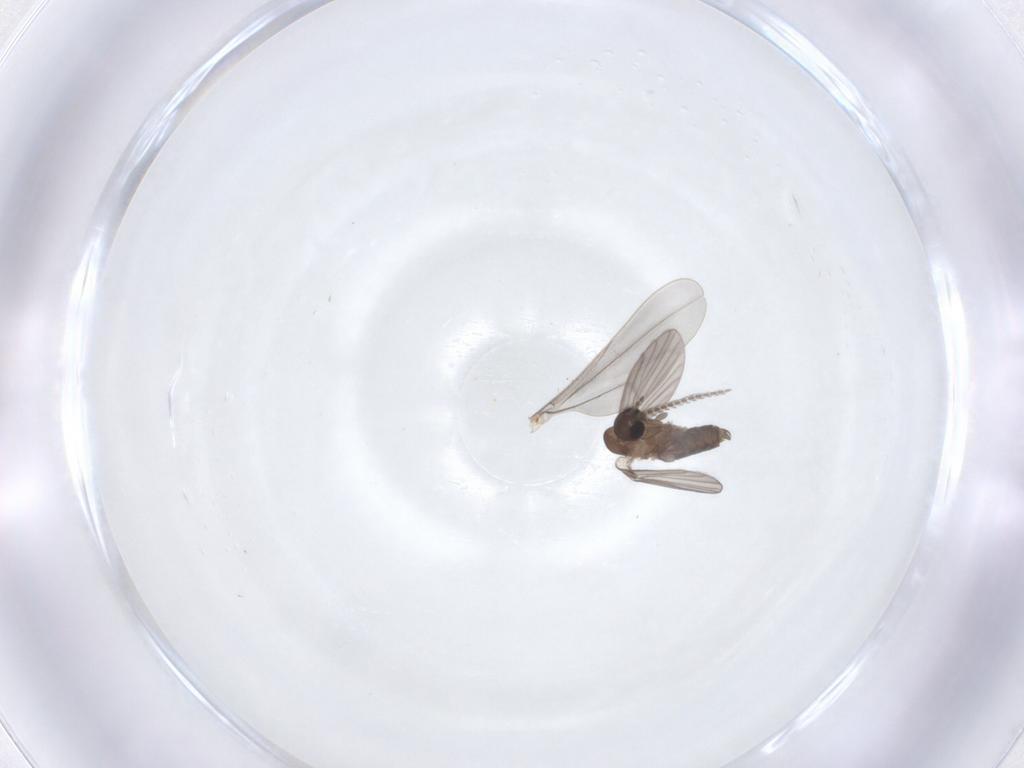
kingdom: Animalia
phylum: Arthropoda
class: Insecta
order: Diptera
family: Cecidomyiidae
